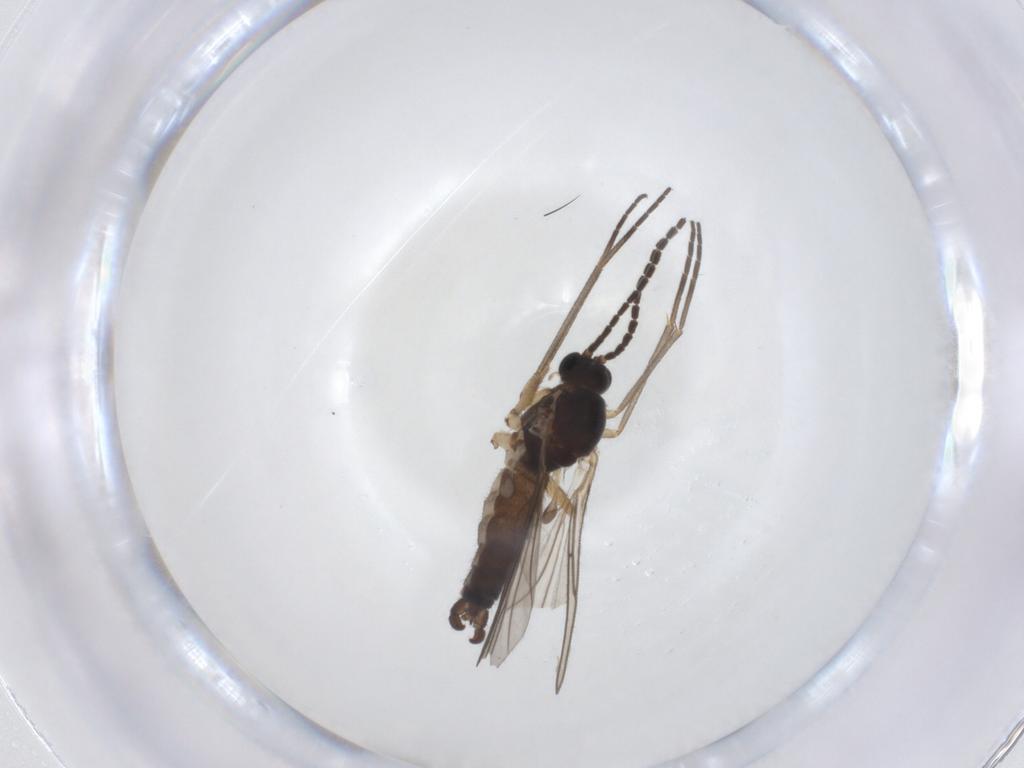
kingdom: Animalia
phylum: Arthropoda
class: Insecta
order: Diptera
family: Sciaridae
